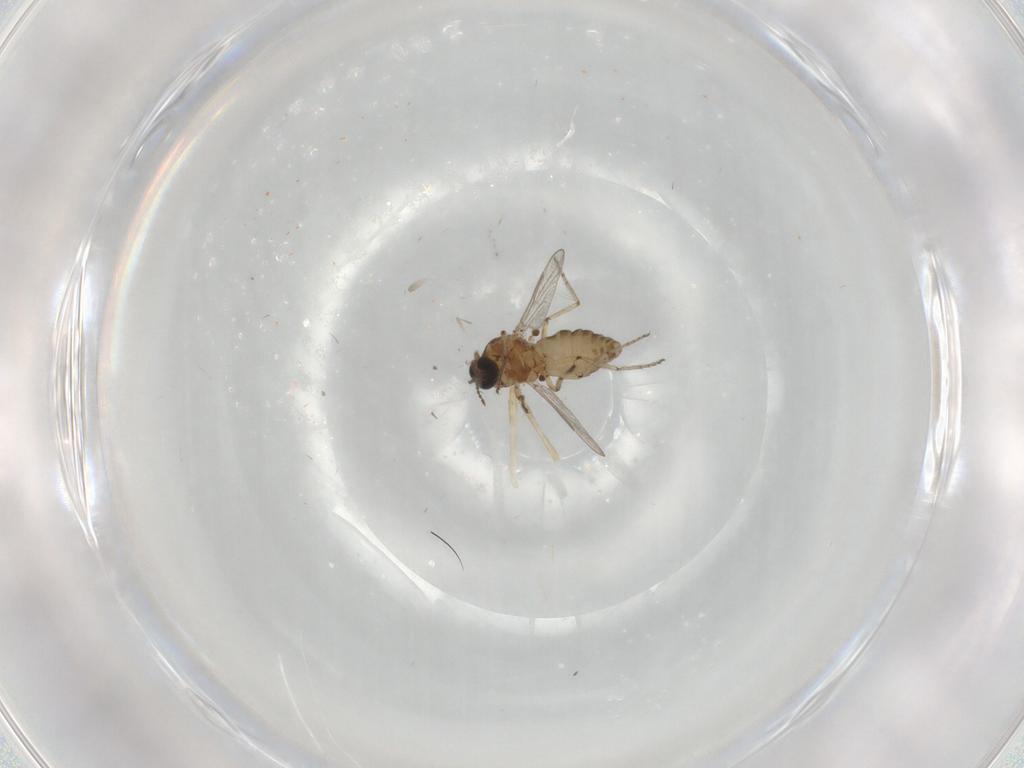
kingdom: Animalia
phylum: Arthropoda
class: Insecta
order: Diptera
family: Ceratopogonidae
